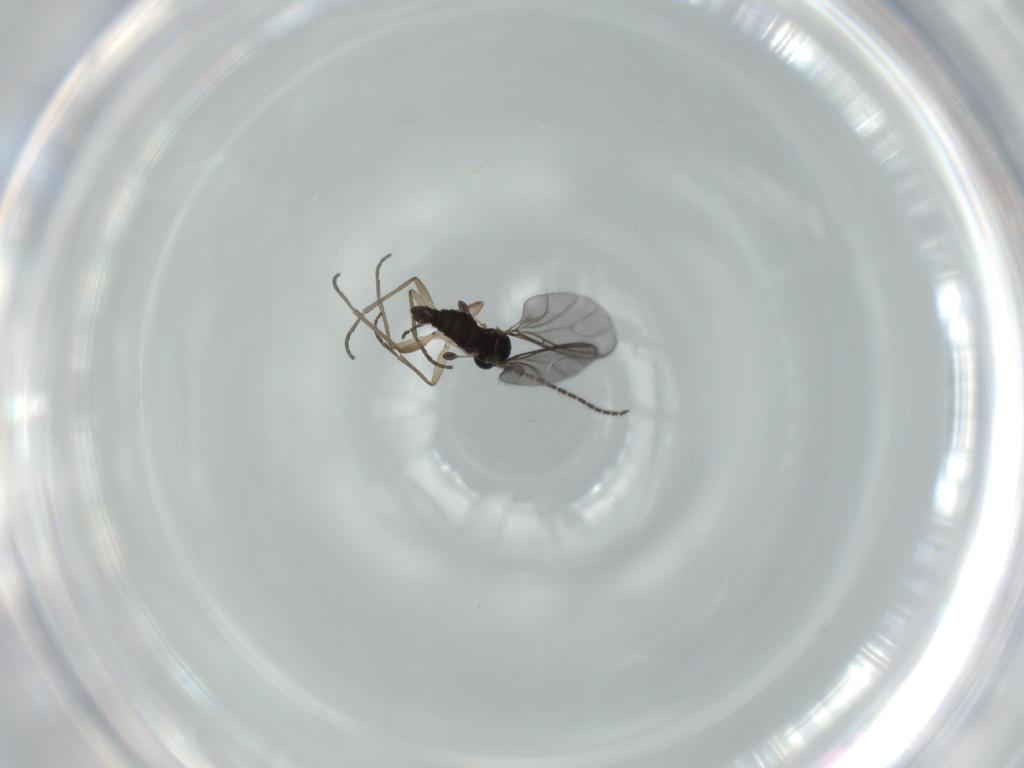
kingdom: Animalia
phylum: Arthropoda
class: Insecta
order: Diptera
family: Sciaridae
